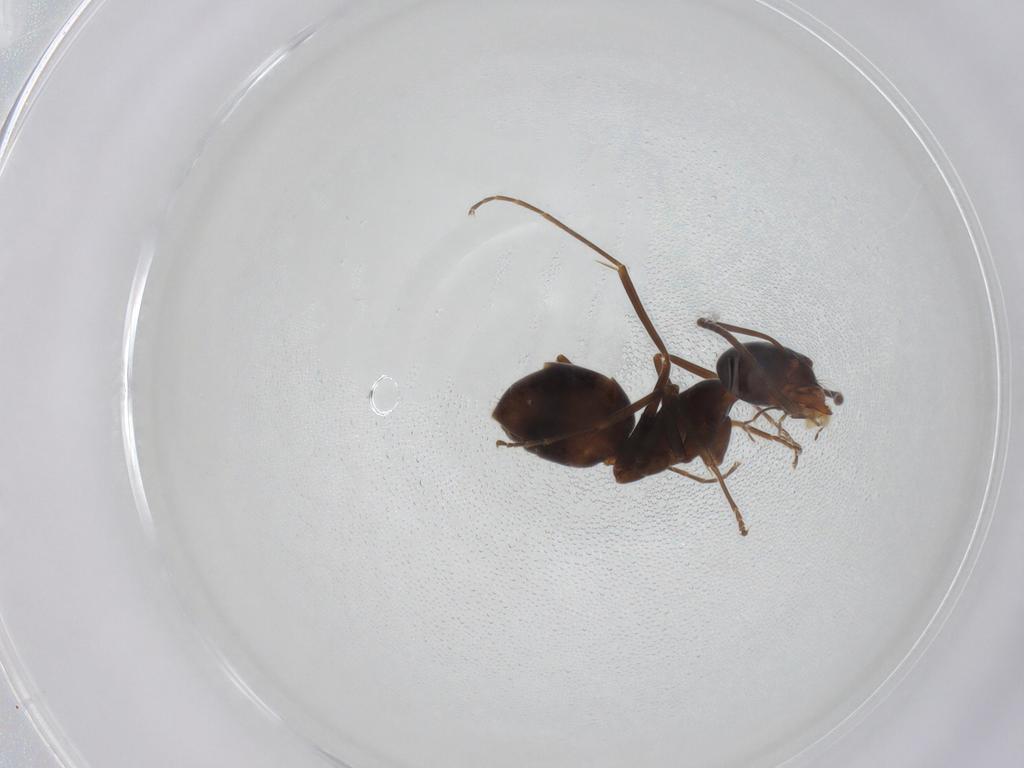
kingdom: Animalia
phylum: Arthropoda
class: Insecta
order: Hymenoptera
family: Formicidae
